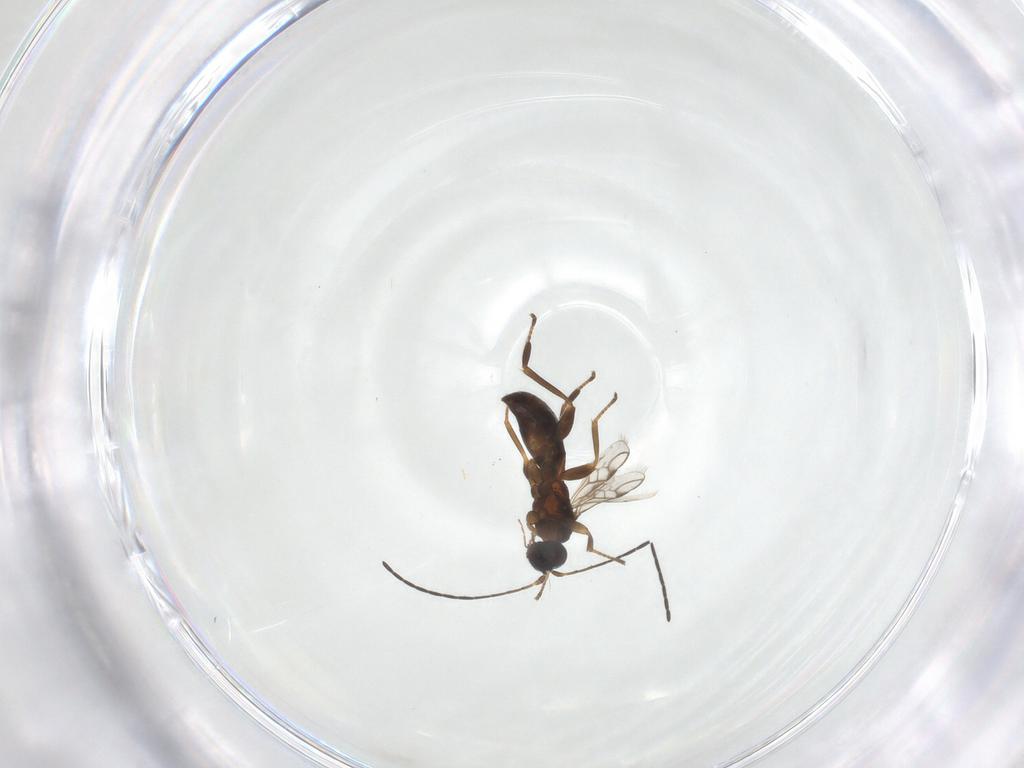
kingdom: Animalia
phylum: Arthropoda
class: Insecta
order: Hymenoptera
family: Braconidae
